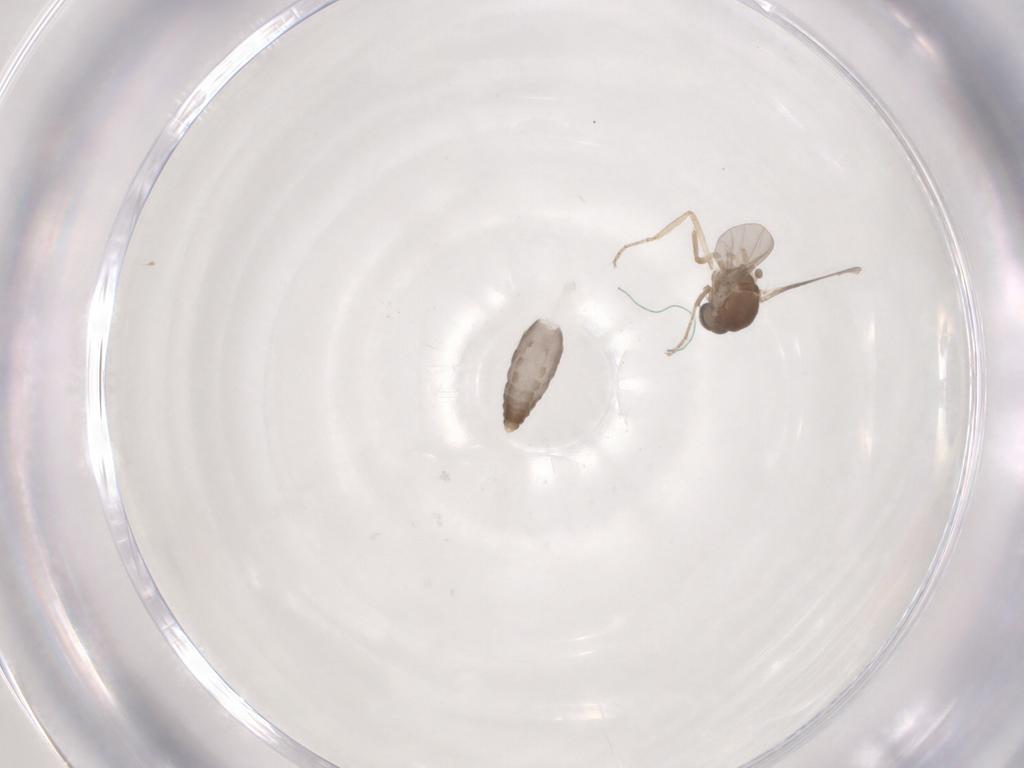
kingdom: Animalia
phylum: Arthropoda
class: Insecta
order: Diptera
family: Ceratopogonidae
